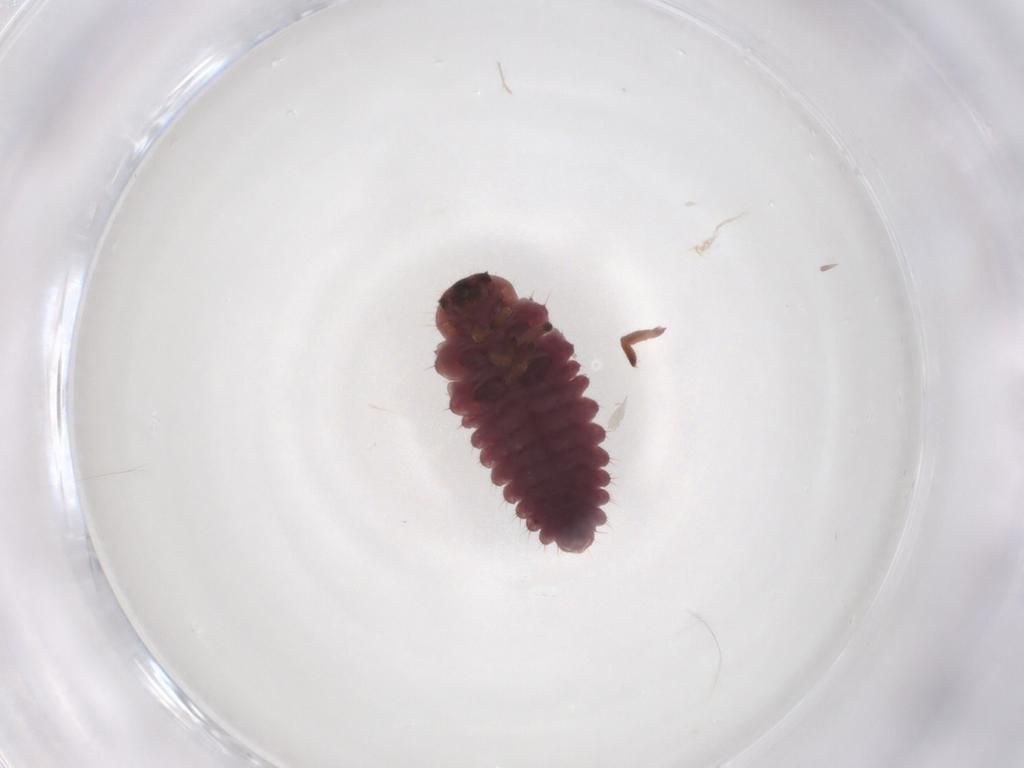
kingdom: Animalia
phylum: Arthropoda
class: Insecta
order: Coleoptera
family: Coccinellidae
